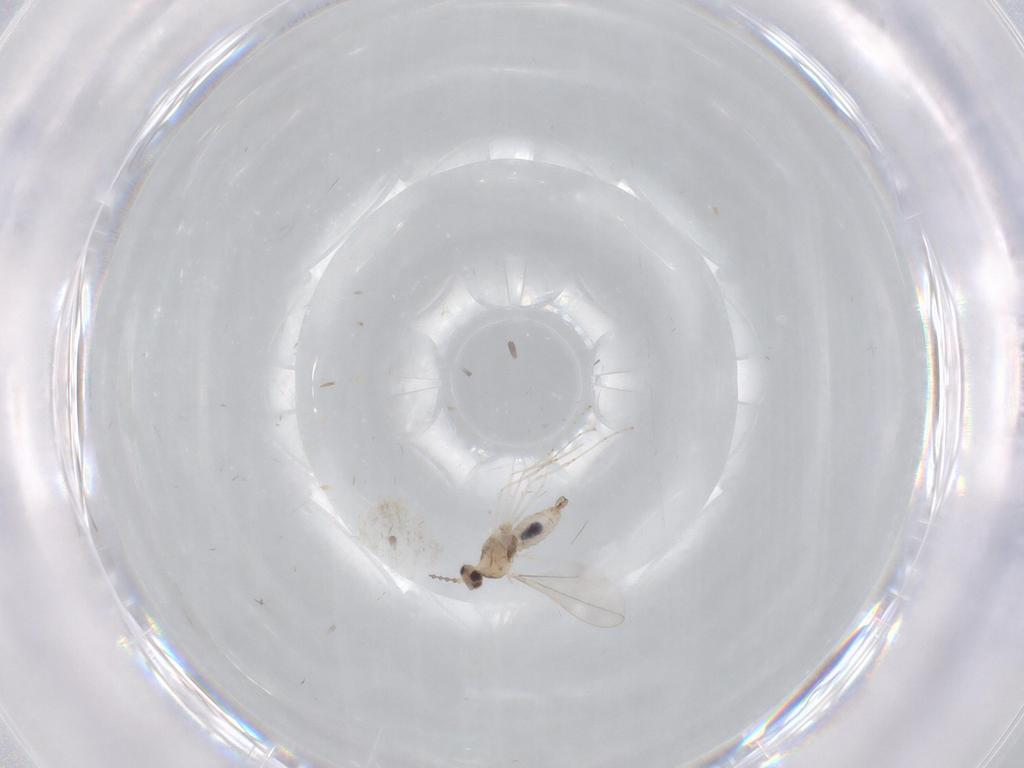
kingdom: Animalia
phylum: Arthropoda
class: Insecta
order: Diptera
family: Cecidomyiidae
